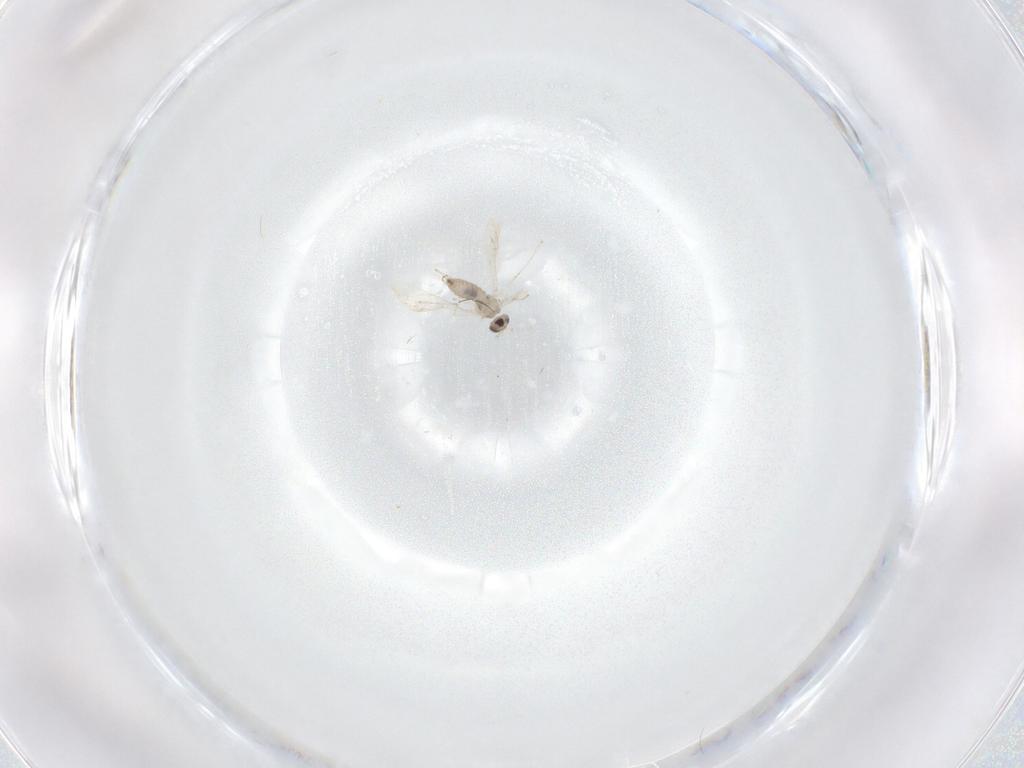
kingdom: Animalia
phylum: Arthropoda
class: Insecta
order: Diptera
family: Cecidomyiidae
